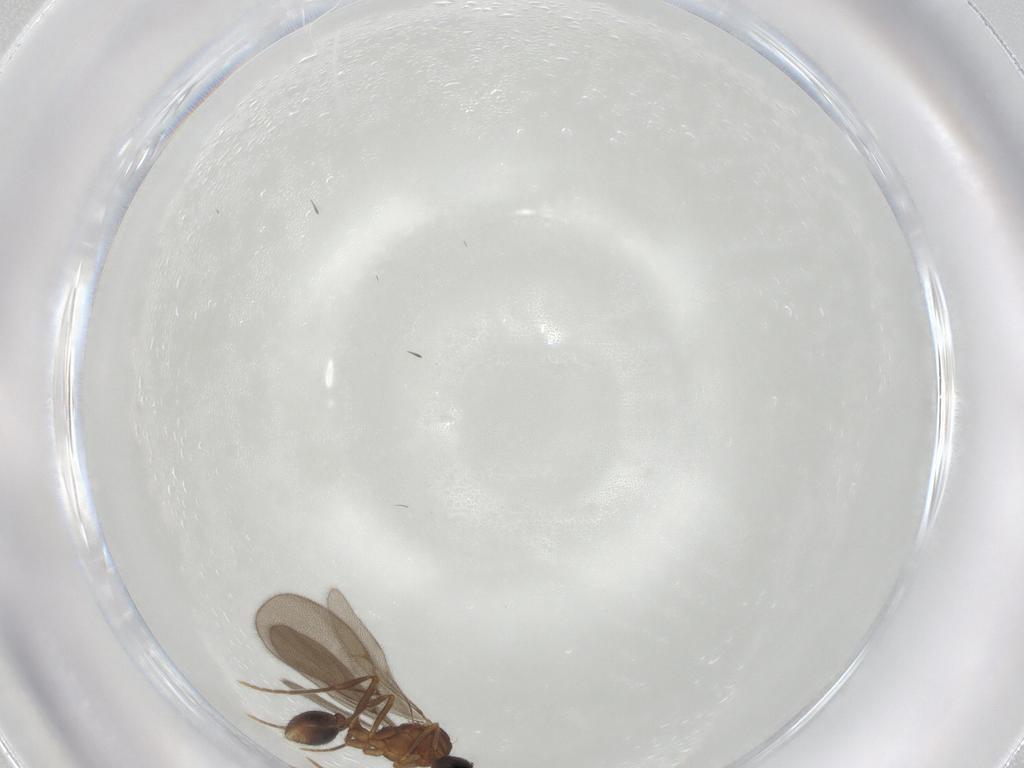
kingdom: Animalia
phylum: Arthropoda
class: Insecta
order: Hymenoptera
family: Formicidae
